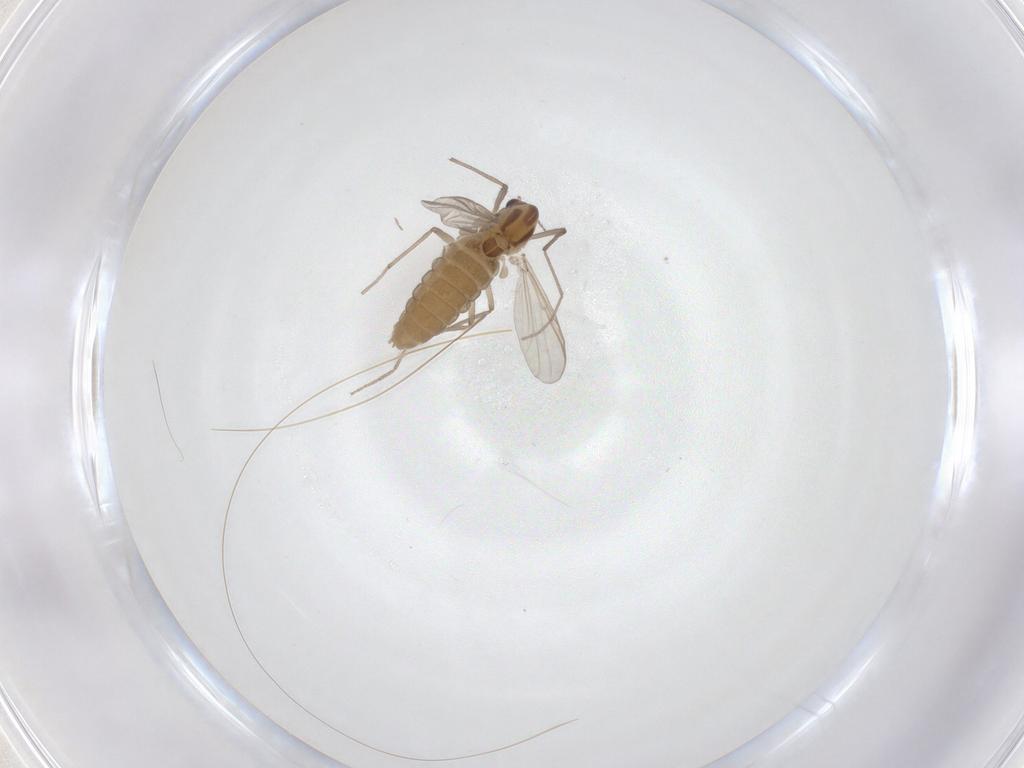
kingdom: Animalia
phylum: Arthropoda
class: Insecta
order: Diptera
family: Chironomidae
